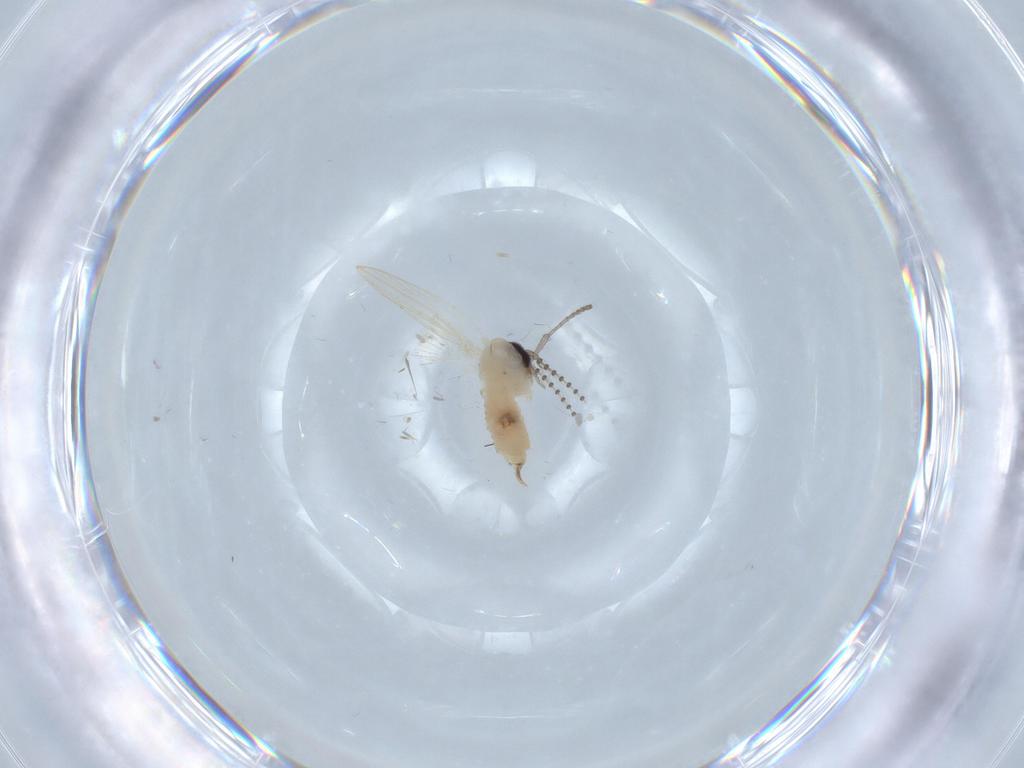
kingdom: Animalia
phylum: Arthropoda
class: Insecta
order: Diptera
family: Psychodidae
